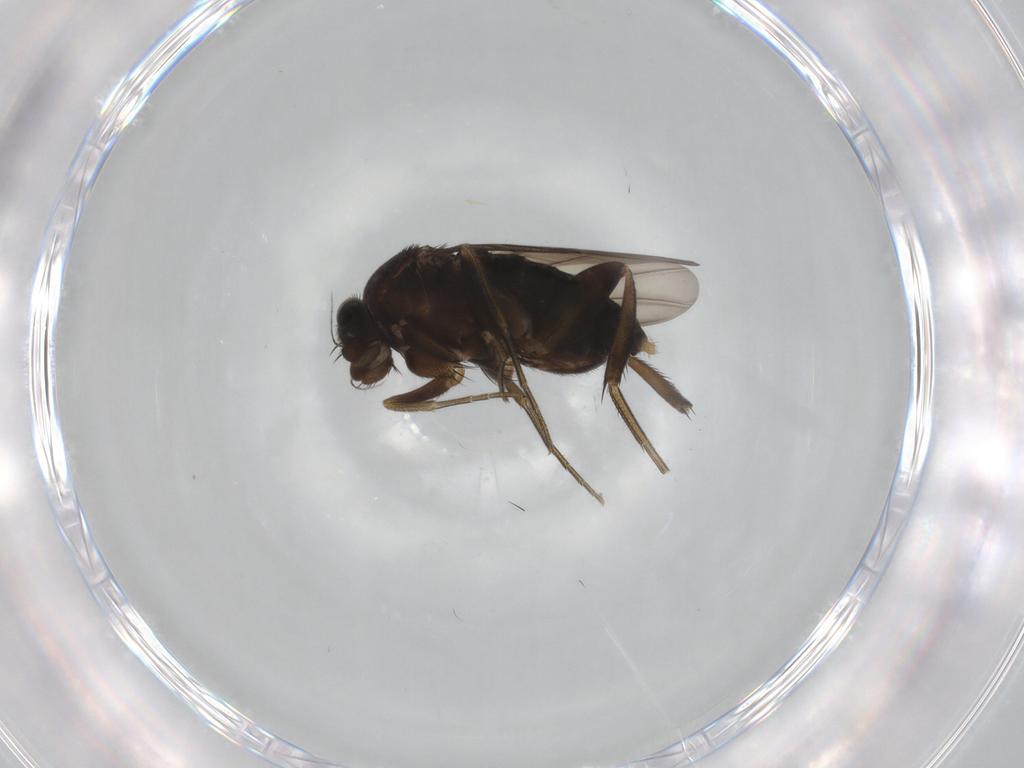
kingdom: Animalia
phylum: Arthropoda
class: Insecta
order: Diptera
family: Phoridae
